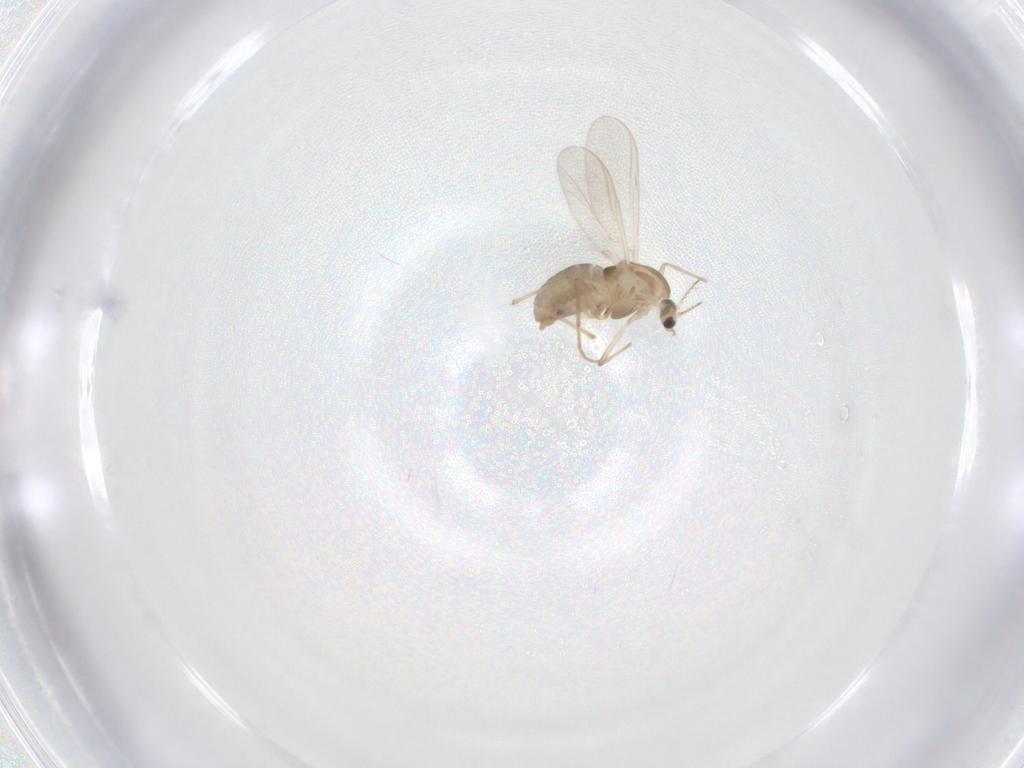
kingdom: Animalia
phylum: Arthropoda
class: Insecta
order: Diptera
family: Chironomidae
